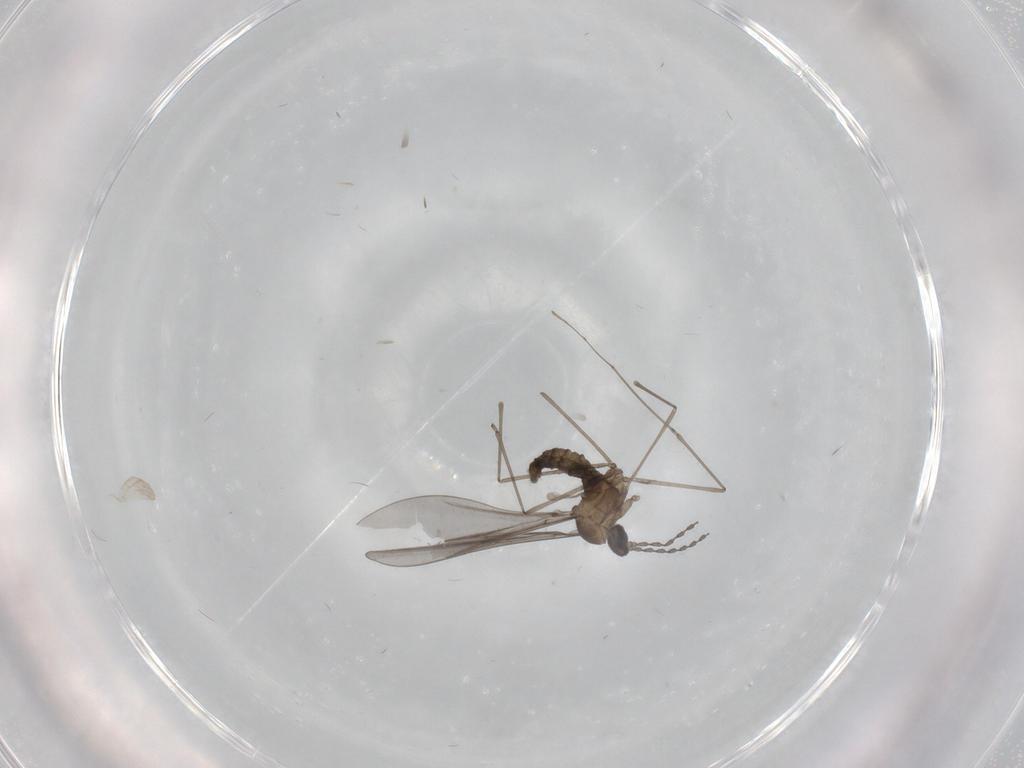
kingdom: Animalia
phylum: Arthropoda
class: Insecta
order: Diptera
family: Cecidomyiidae
